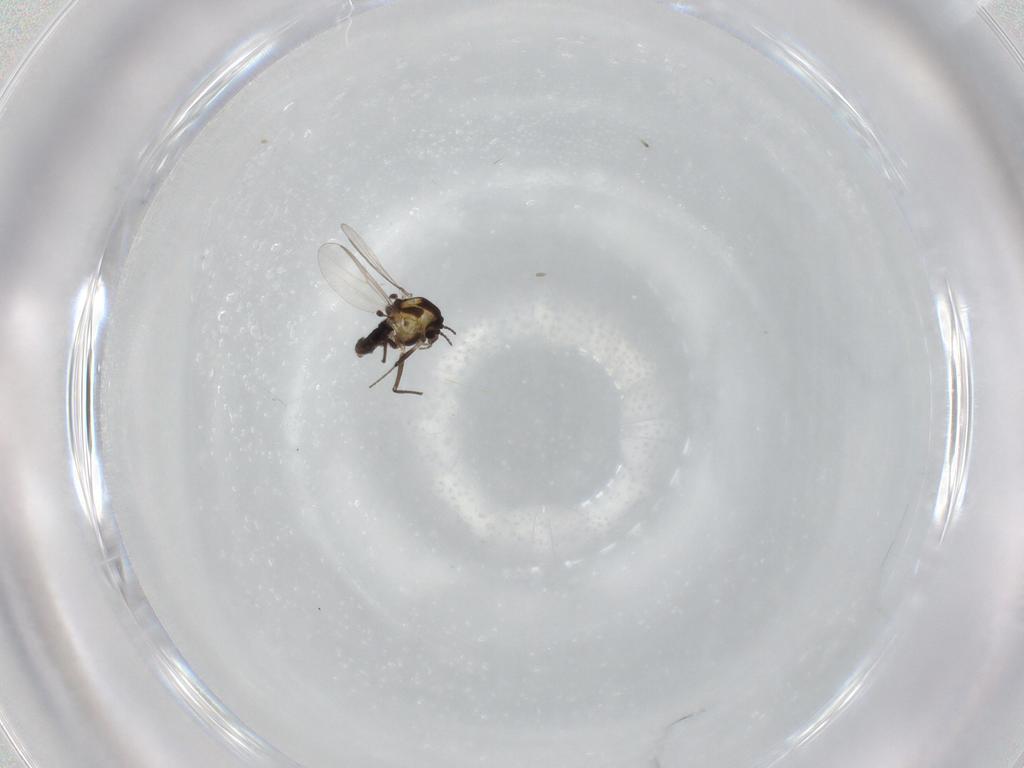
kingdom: Animalia
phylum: Arthropoda
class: Insecta
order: Diptera
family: Chironomidae
